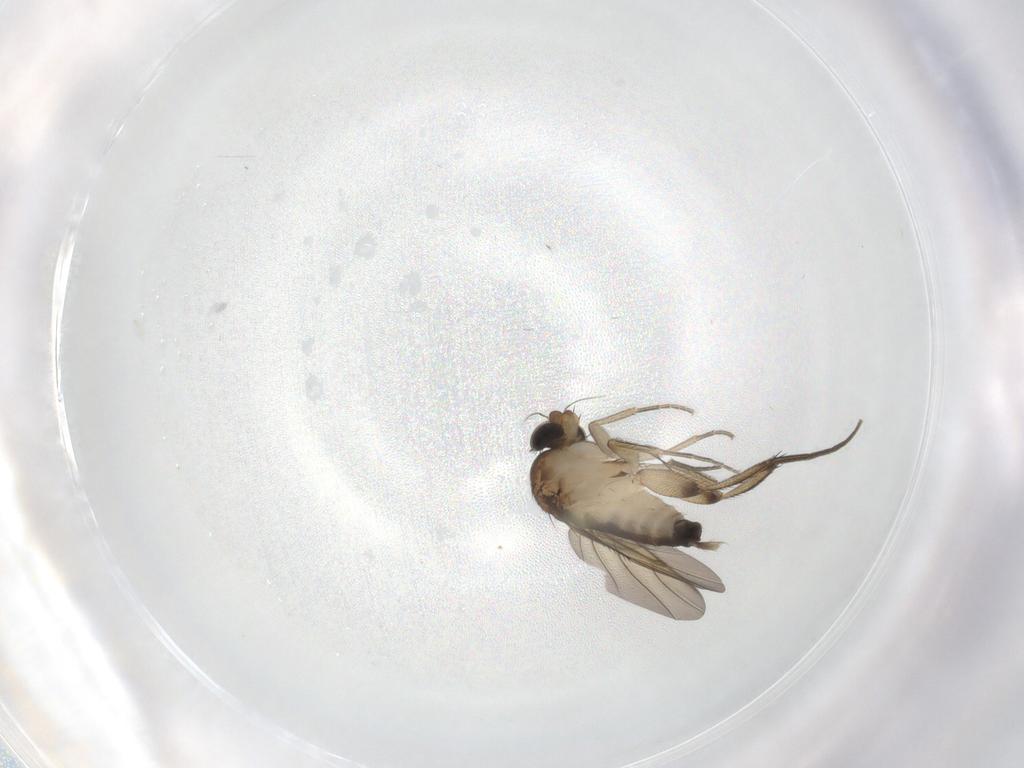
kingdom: Animalia
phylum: Arthropoda
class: Insecta
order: Diptera
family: Phoridae
